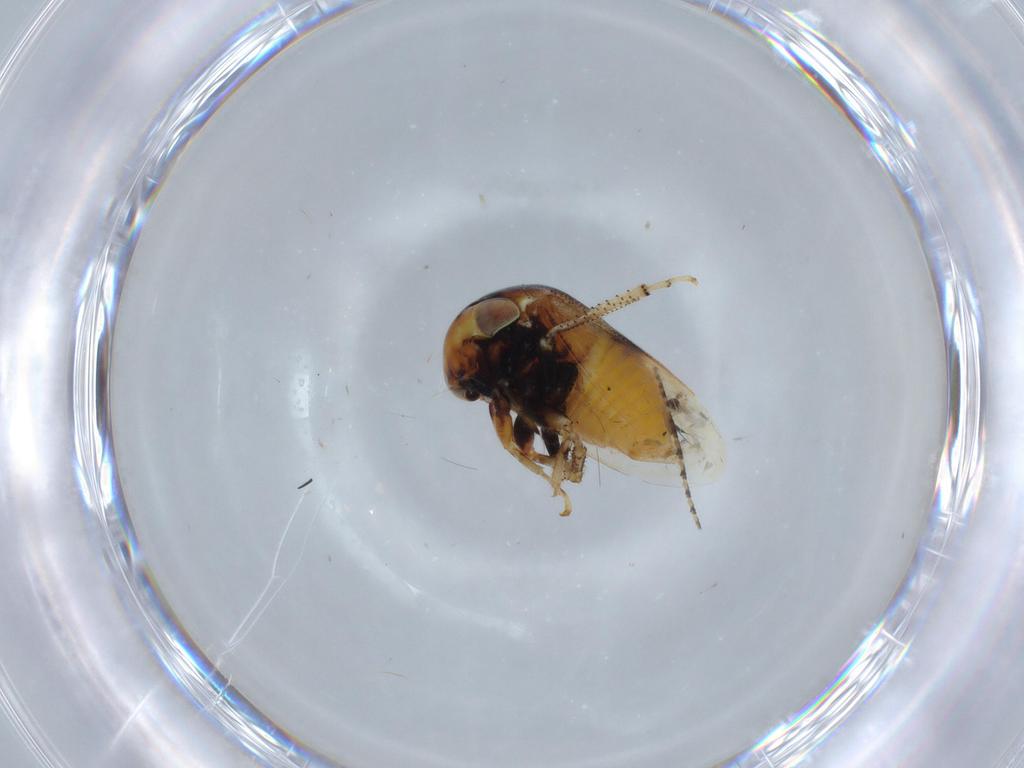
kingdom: Animalia
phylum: Arthropoda
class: Insecta
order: Hemiptera
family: Membracidae
